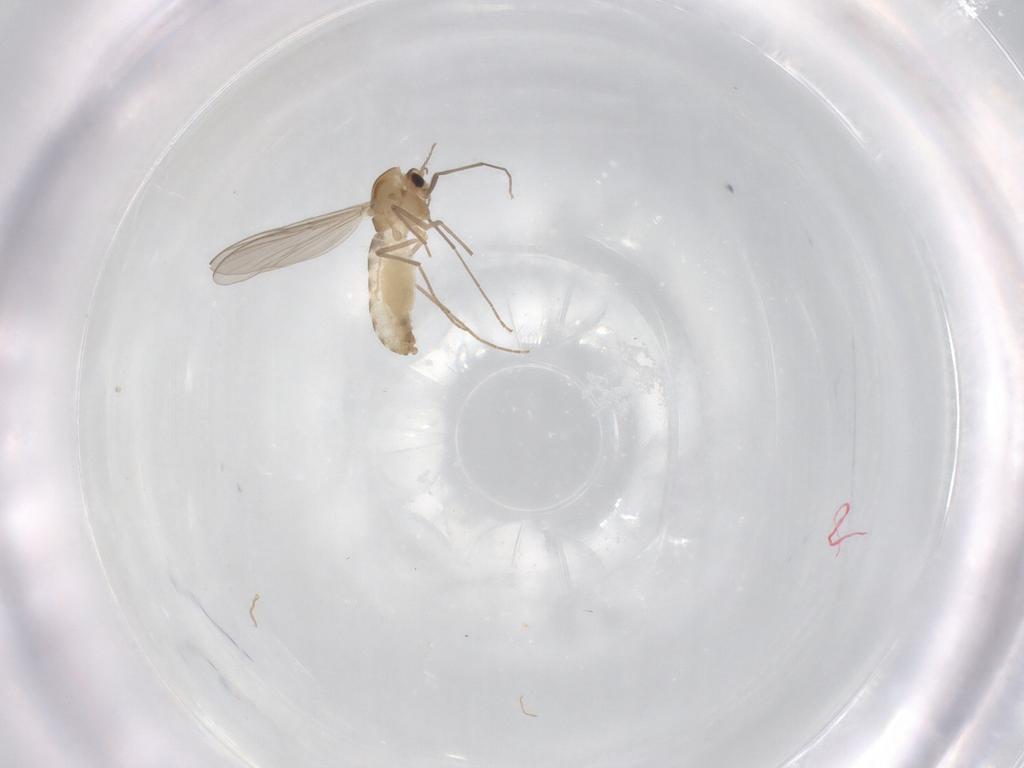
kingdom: Animalia
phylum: Arthropoda
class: Insecta
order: Diptera
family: Chironomidae
